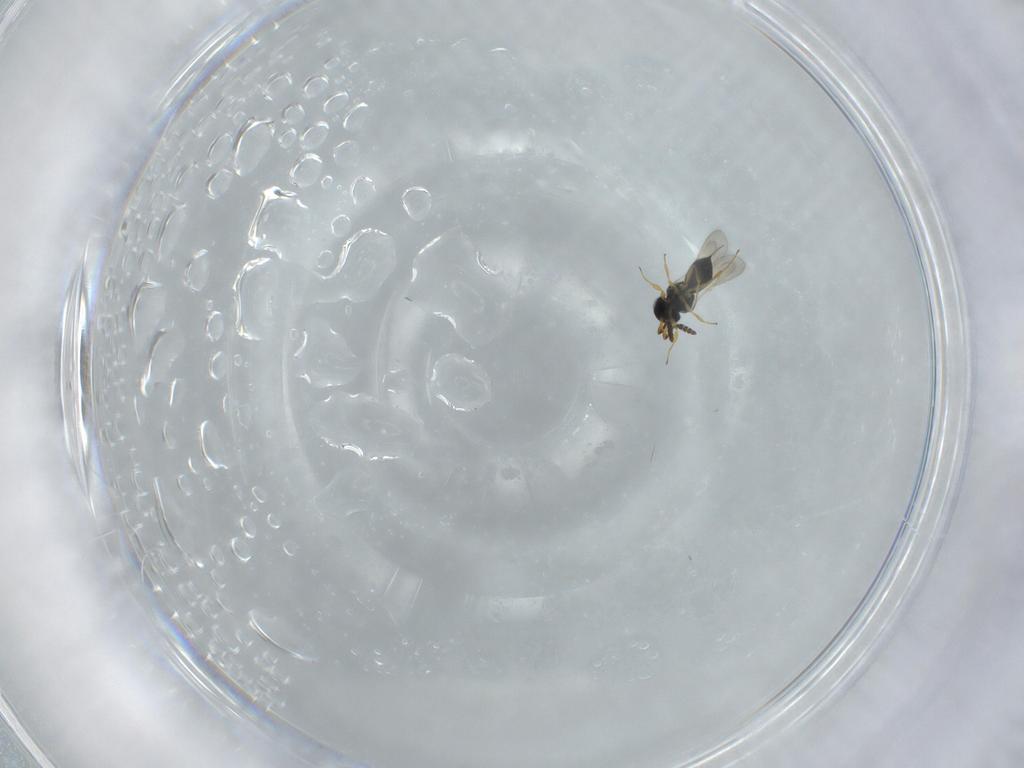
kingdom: Animalia
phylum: Arthropoda
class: Insecta
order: Hymenoptera
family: Scelionidae
